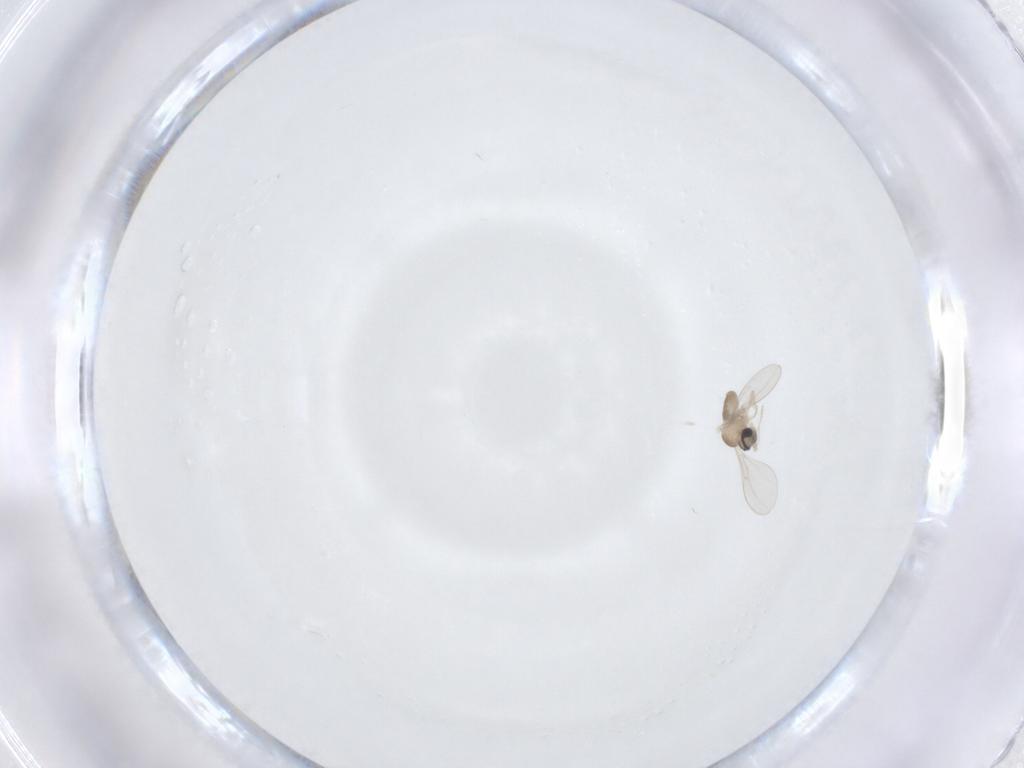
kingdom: Animalia
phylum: Arthropoda
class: Insecta
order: Diptera
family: Cecidomyiidae
